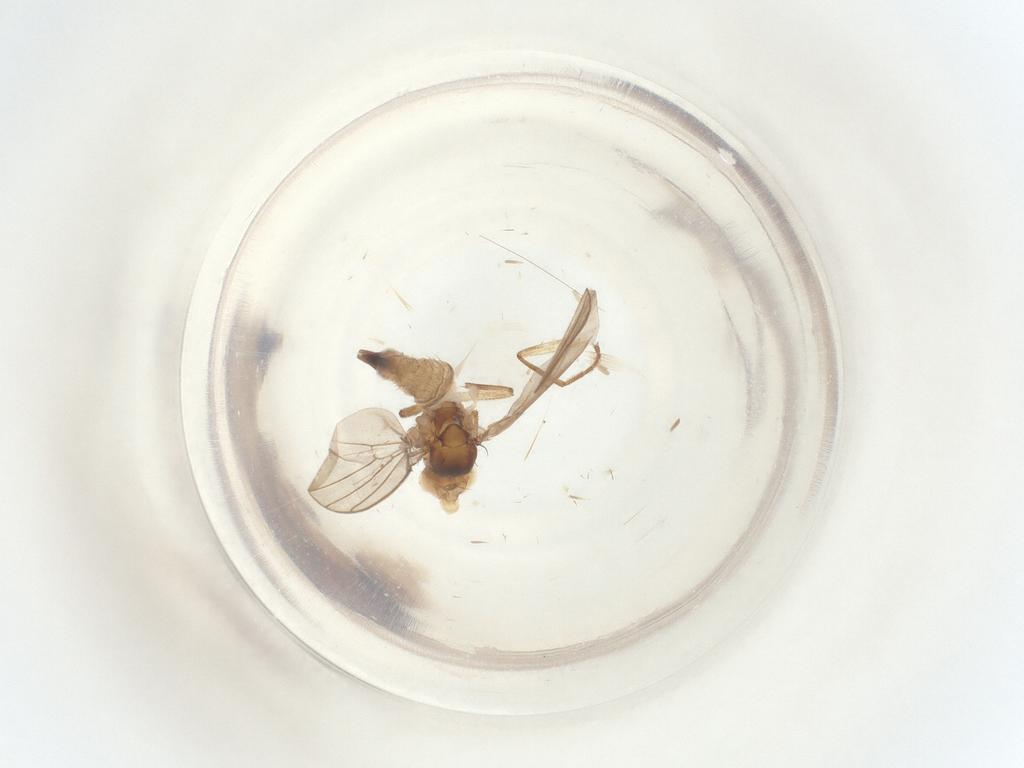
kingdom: Animalia
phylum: Arthropoda
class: Insecta
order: Diptera
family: Agromyzidae
